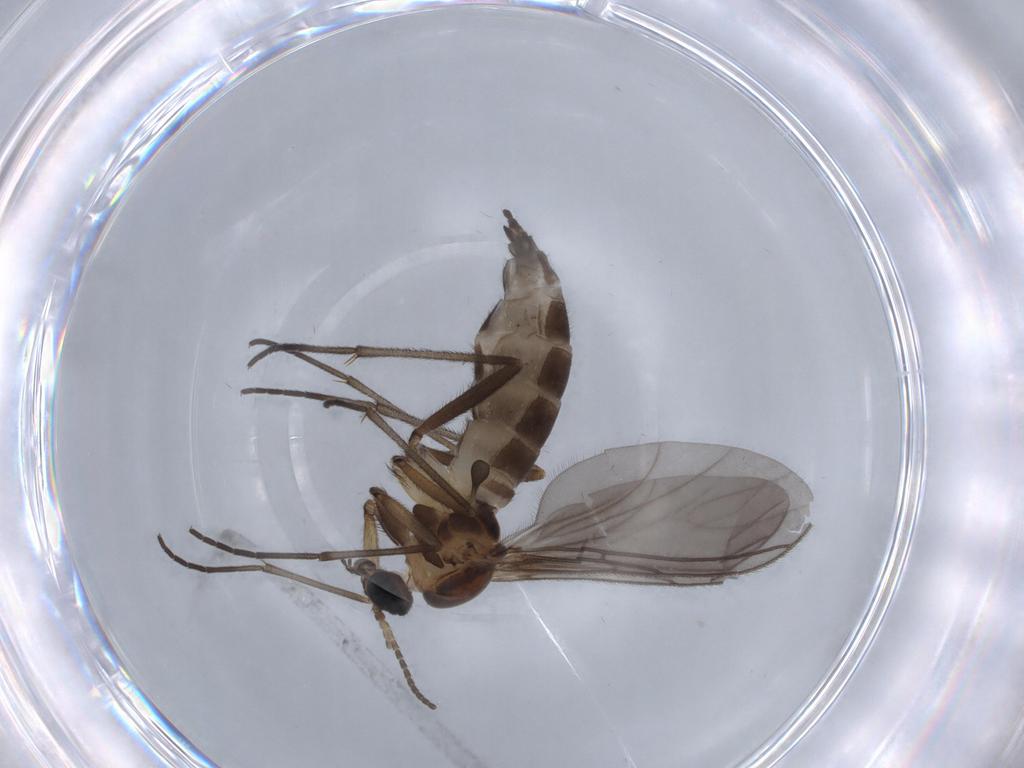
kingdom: Animalia
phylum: Arthropoda
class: Insecta
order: Diptera
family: Sciaridae
